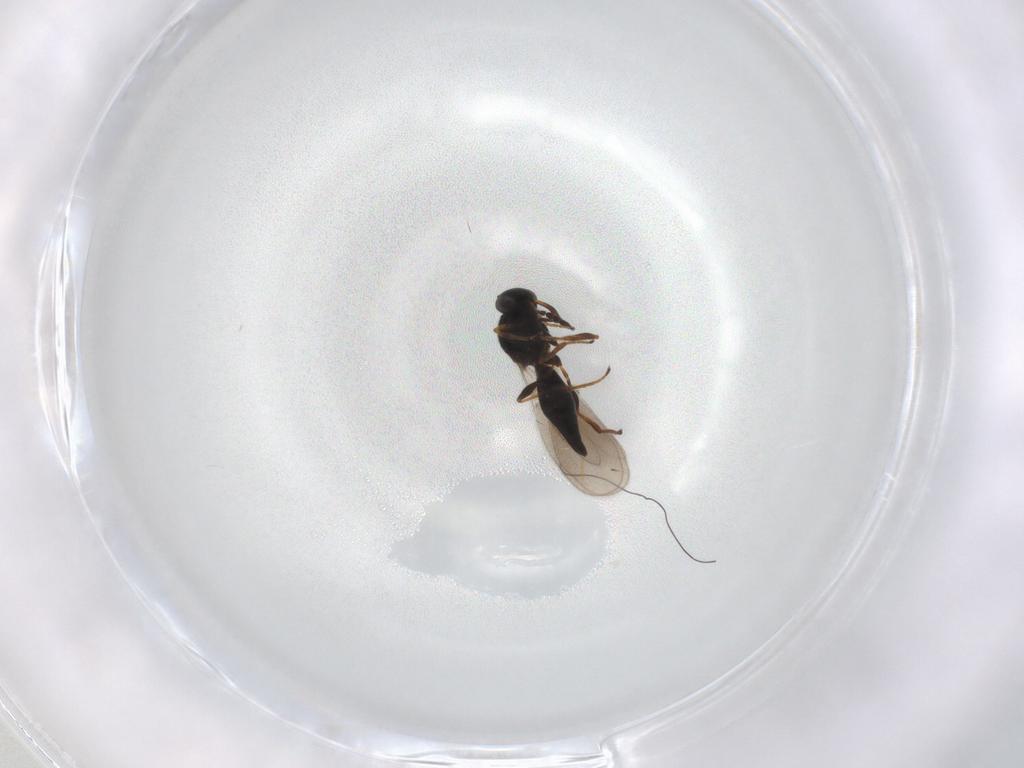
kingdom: Animalia
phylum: Arthropoda
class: Insecta
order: Hymenoptera
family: Platygastridae
